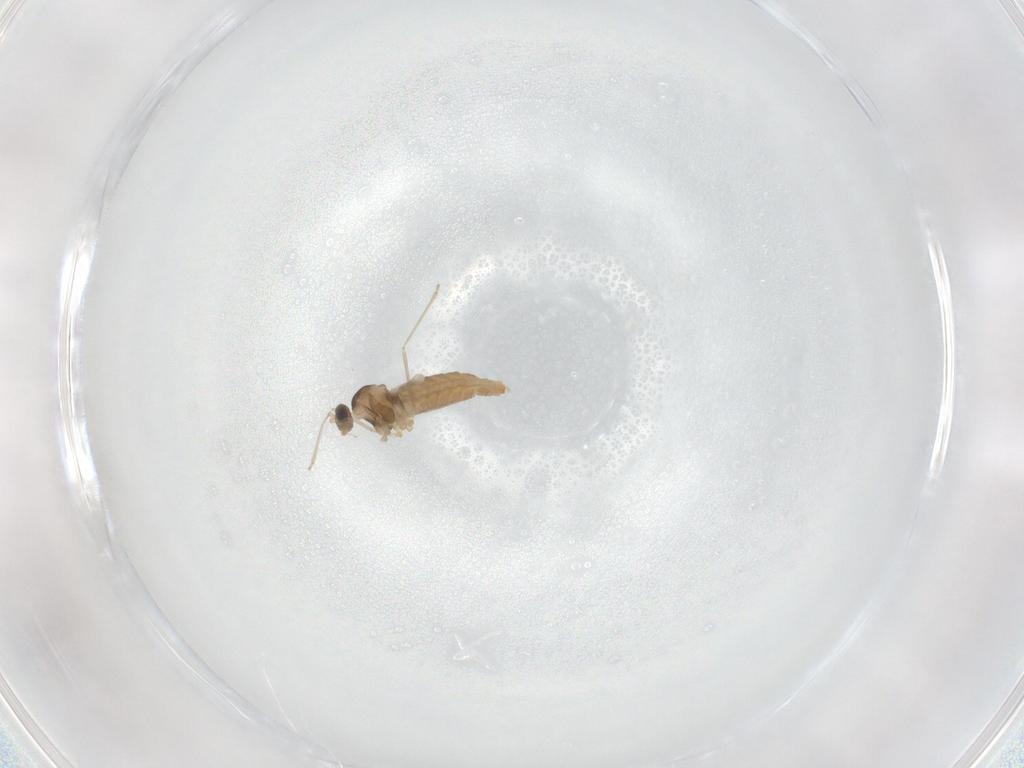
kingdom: Animalia
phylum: Arthropoda
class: Insecta
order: Diptera
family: Cecidomyiidae
